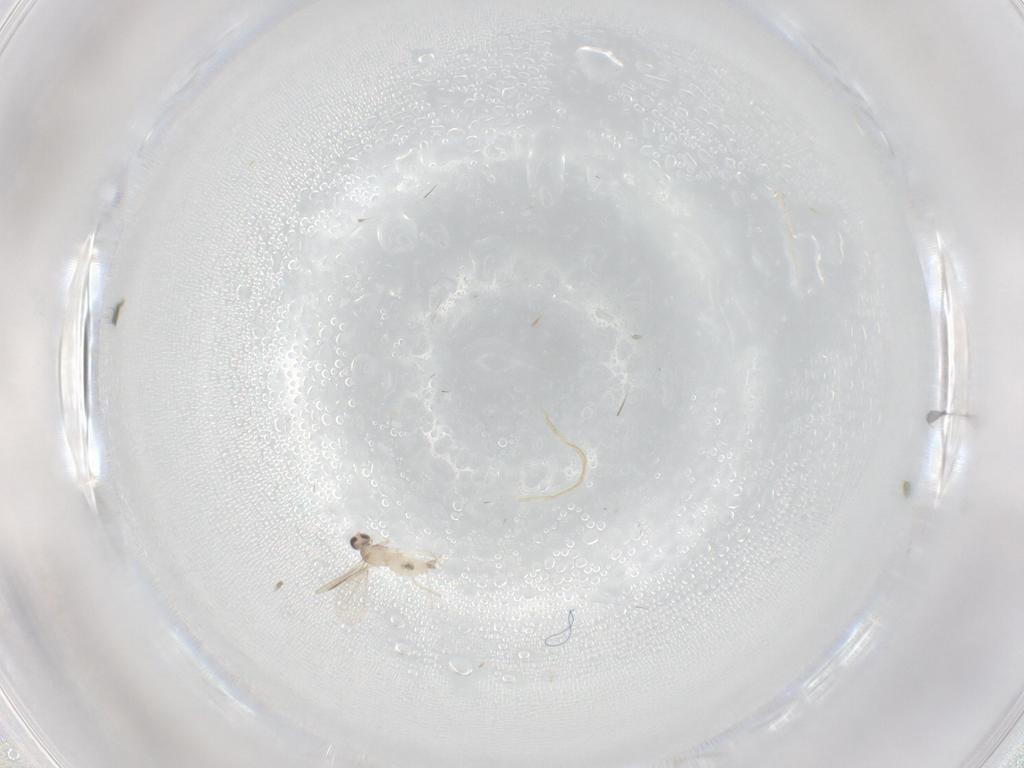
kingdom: Animalia
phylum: Arthropoda
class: Insecta
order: Diptera
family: Cecidomyiidae
